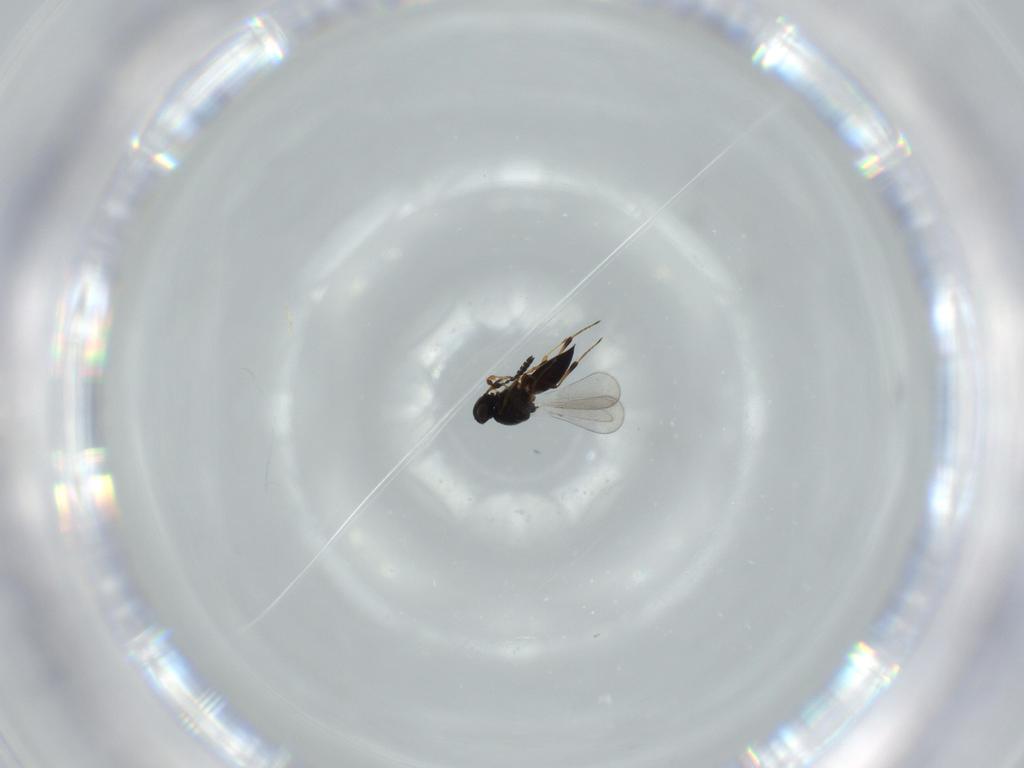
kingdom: Animalia
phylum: Arthropoda
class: Insecta
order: Hymenoptera
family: Platygastridae
